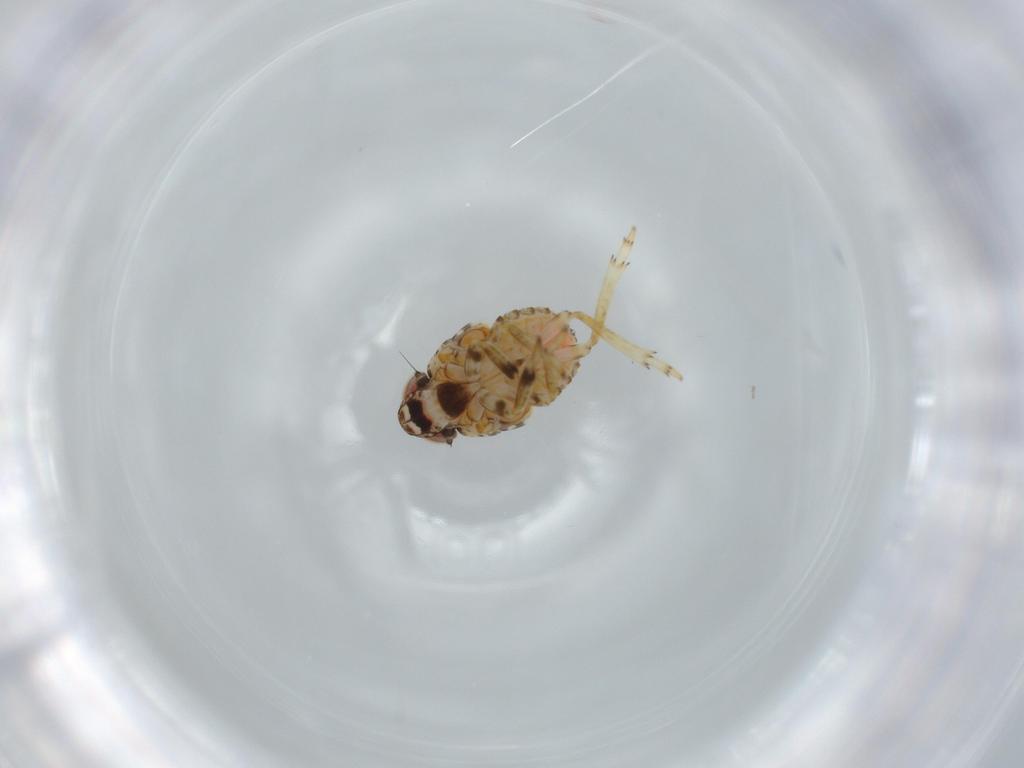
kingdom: Animalia
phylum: Arthropoda
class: Insecta
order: Hemiptera
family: Issidae
